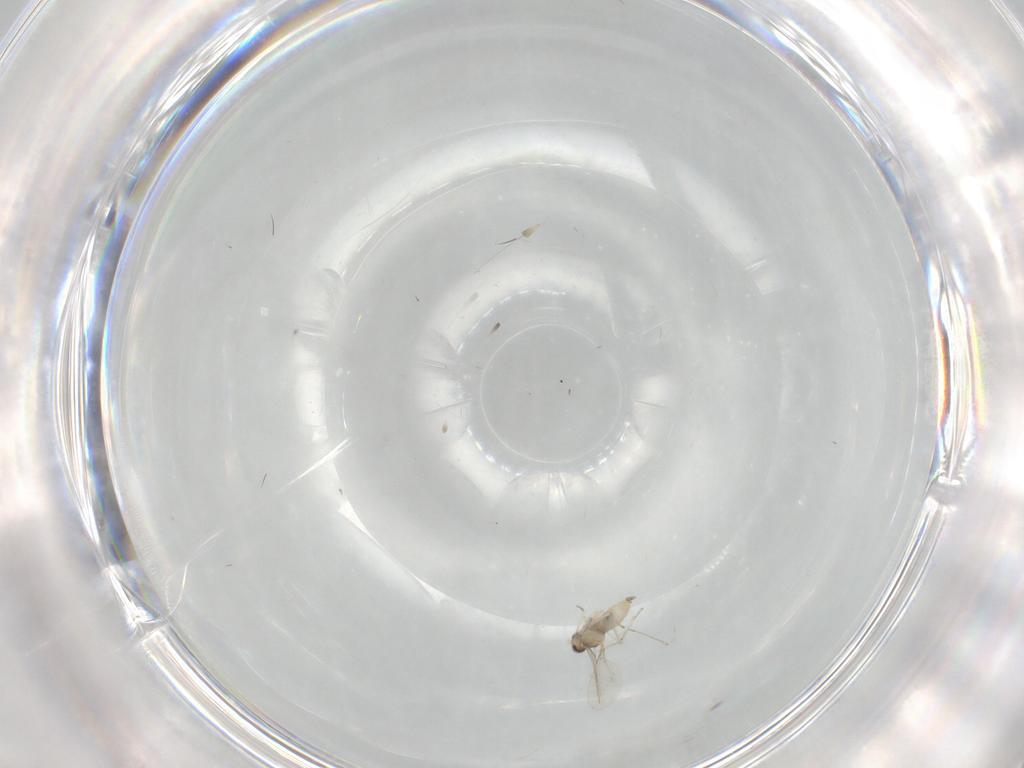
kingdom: Animalia
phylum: Arthropoda
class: Insecta
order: Diptera
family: Cecidomyiidae
